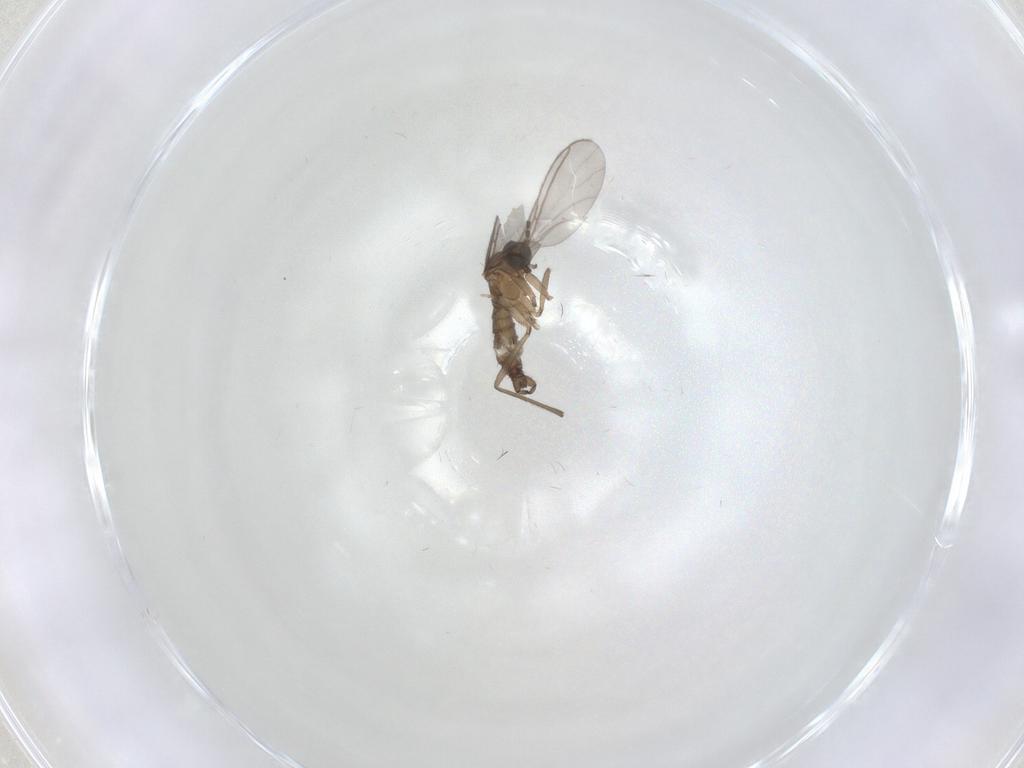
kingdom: Animalia
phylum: Arthropoda
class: Insecta
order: Diptera
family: Sciaridae
